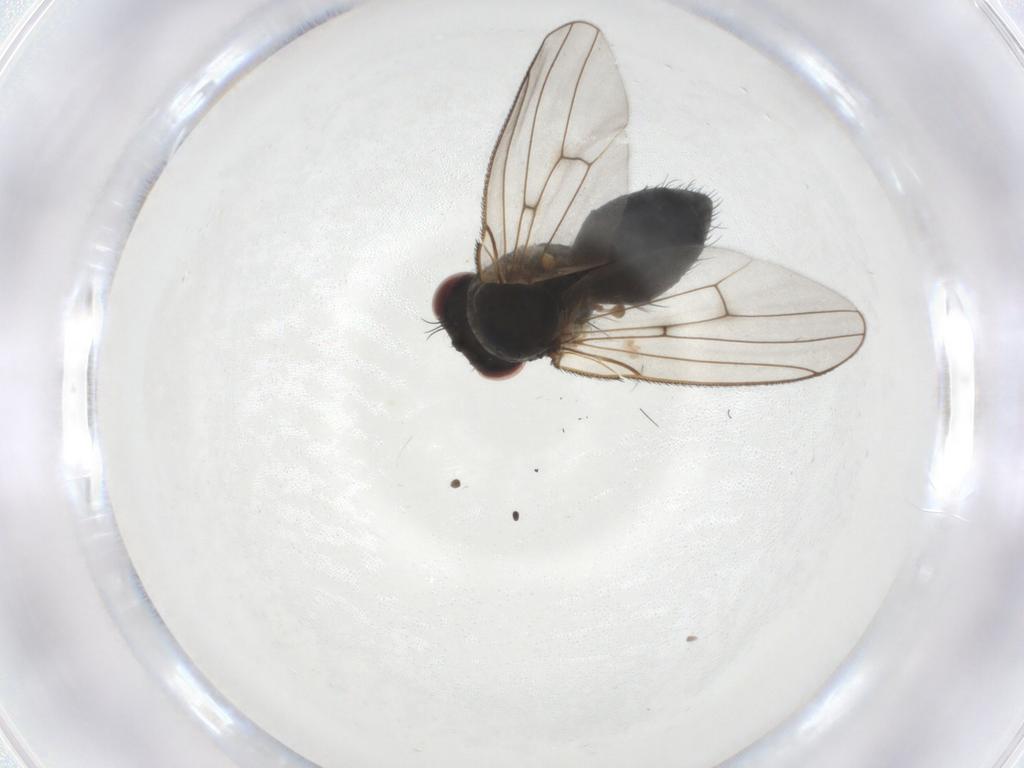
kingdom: Animalia
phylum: Arthropoda
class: Insecta
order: Diptera
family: Muscidae
